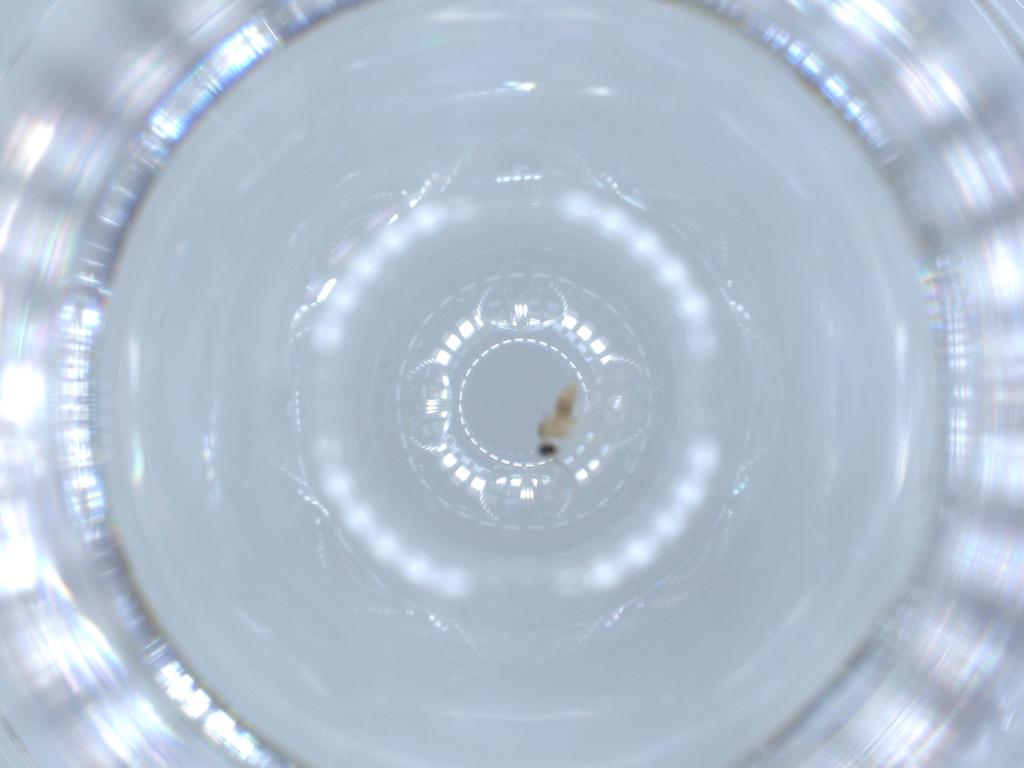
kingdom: Animalia
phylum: Arthropoda
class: Insecta
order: Diptera
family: Cecidomyiidae
